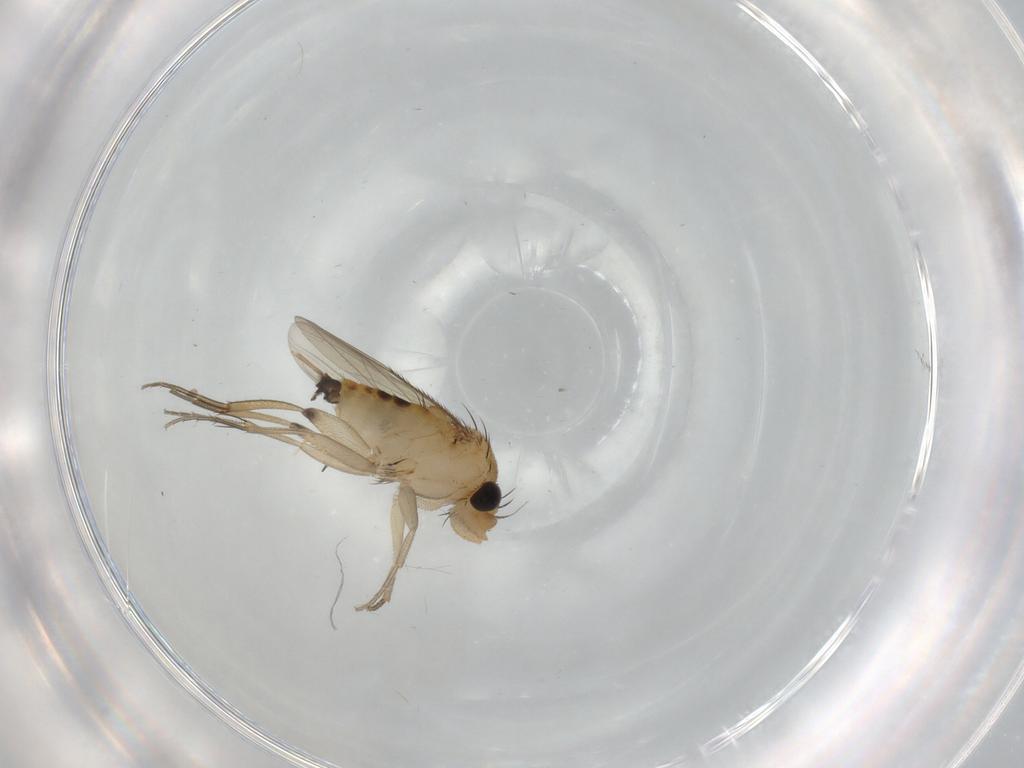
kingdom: Animalia
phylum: Arthropoda
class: Insecta
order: Diptera
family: Phoridae
